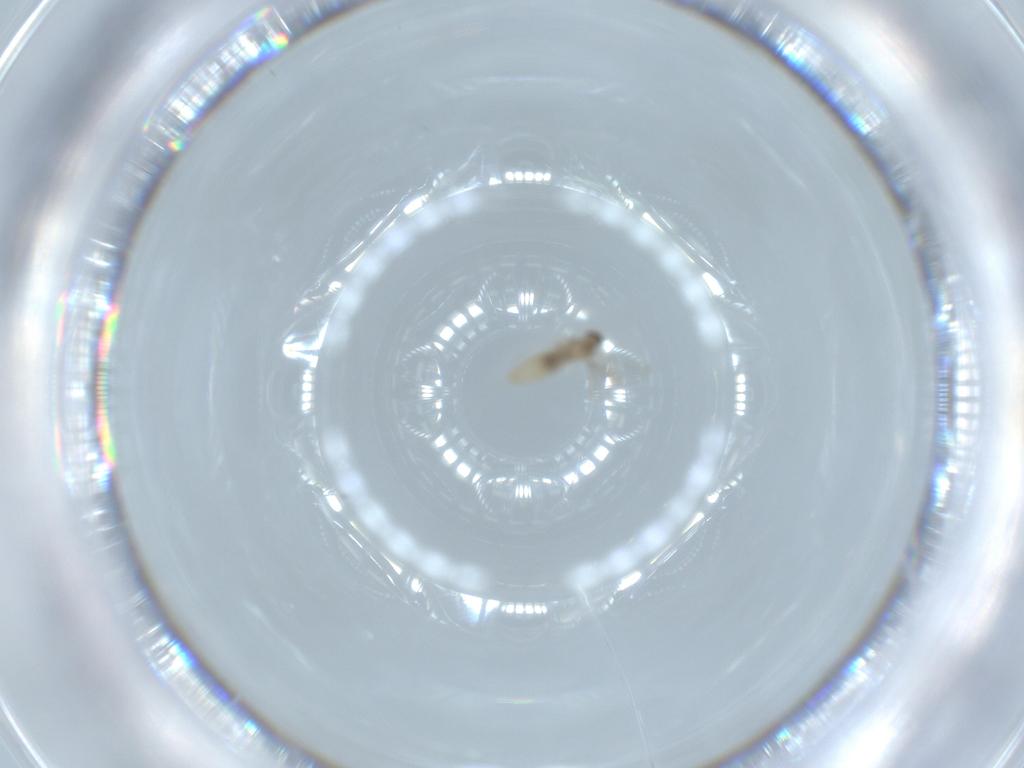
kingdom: Animalia
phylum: Arthropoda
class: Insecta
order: Diptera
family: Cecidomyiidae
